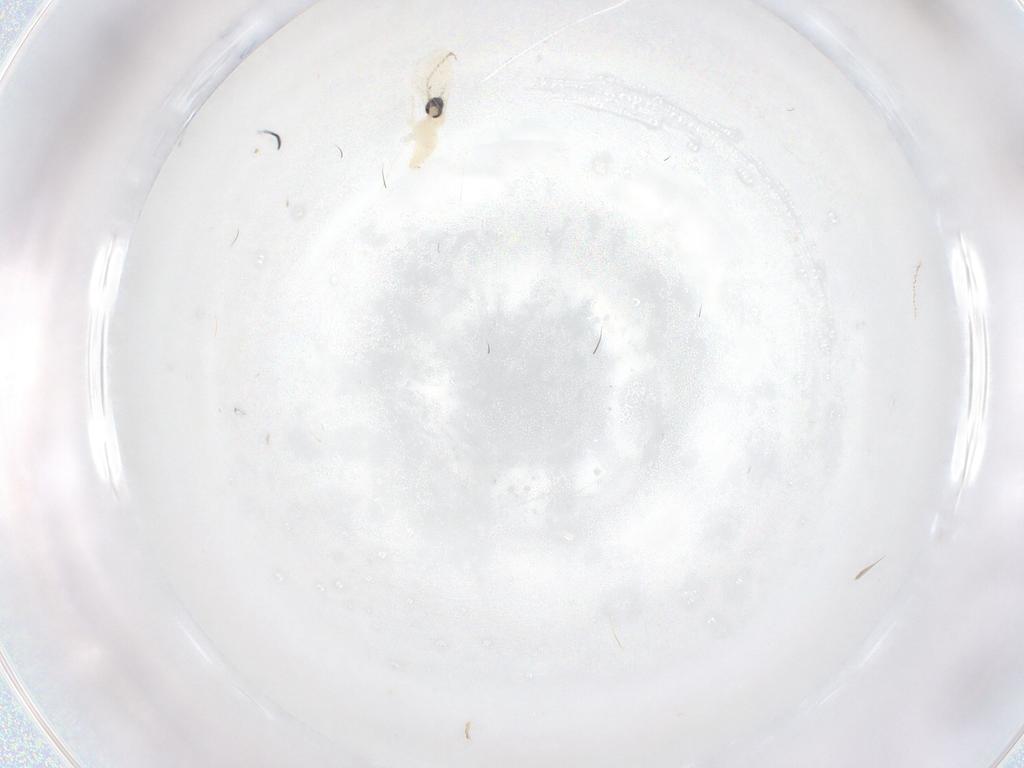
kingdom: Animalia
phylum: Arthropoda
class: Insecta
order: Diptera
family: Cecidomyiidae
